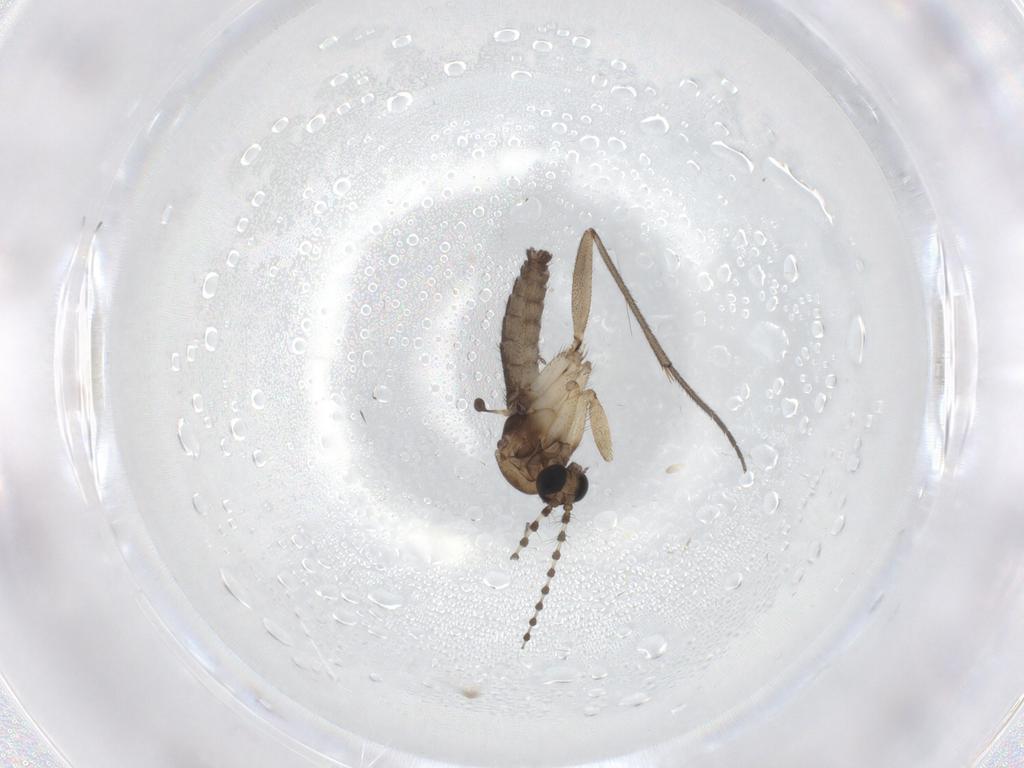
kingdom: Animalia
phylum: Arthropoda
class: Insecta
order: Diptera
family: Sciaridae
